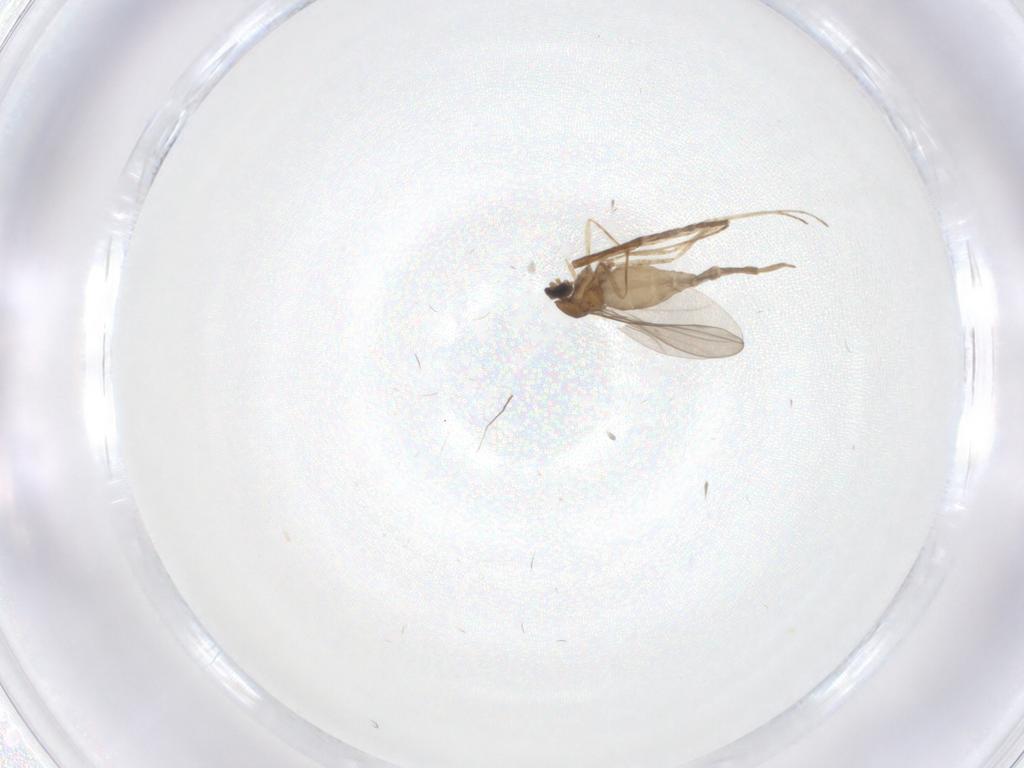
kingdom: Animalia
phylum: Arthropoda
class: Insecta
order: Diptera
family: Cecidomyiidae
